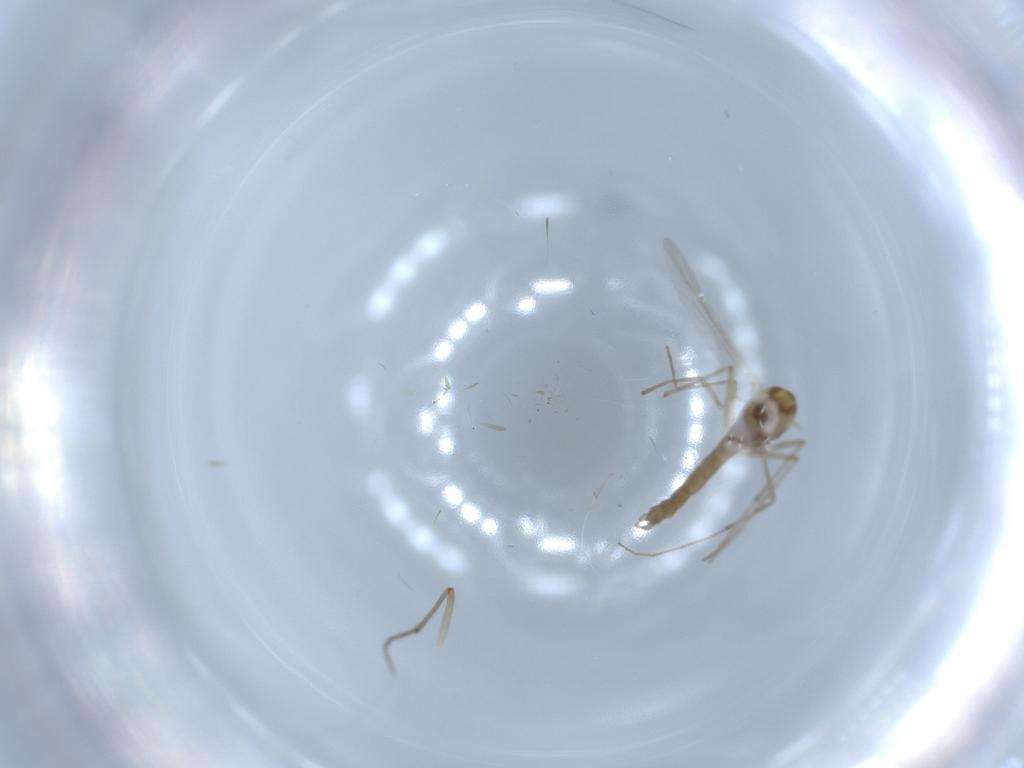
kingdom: Animalia
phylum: Arthropoda
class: Insecta
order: Diptera
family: Chironomidae
